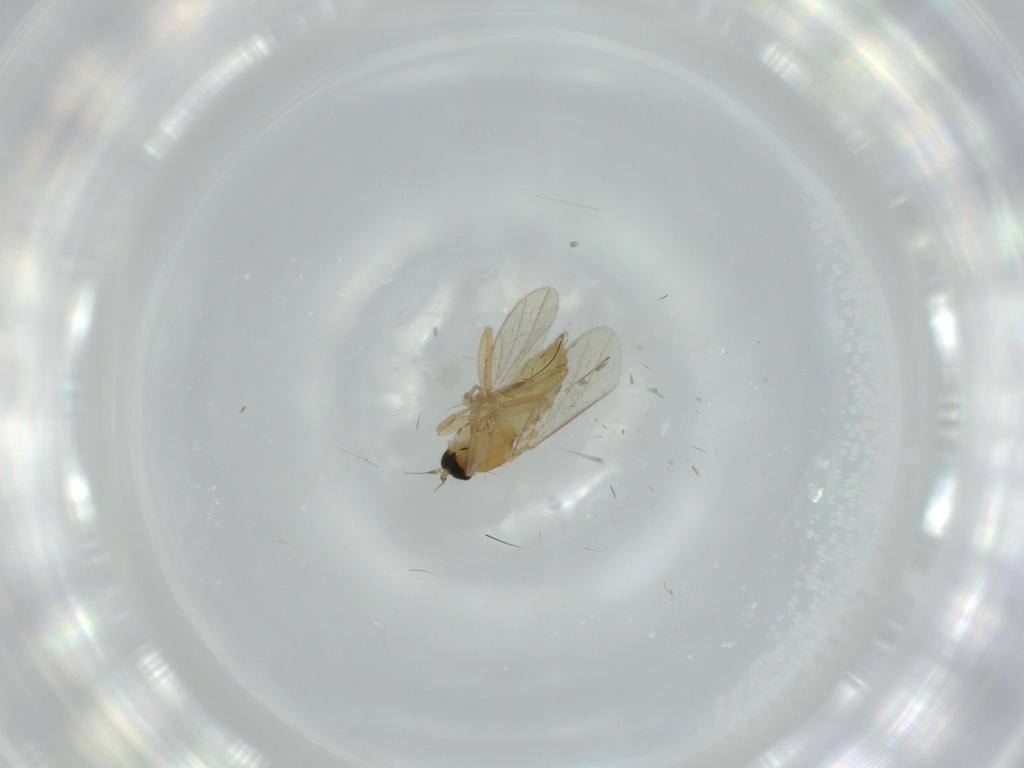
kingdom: Animalia
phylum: Arthropoda
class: Insecta
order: Diptera
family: Hybotidae
